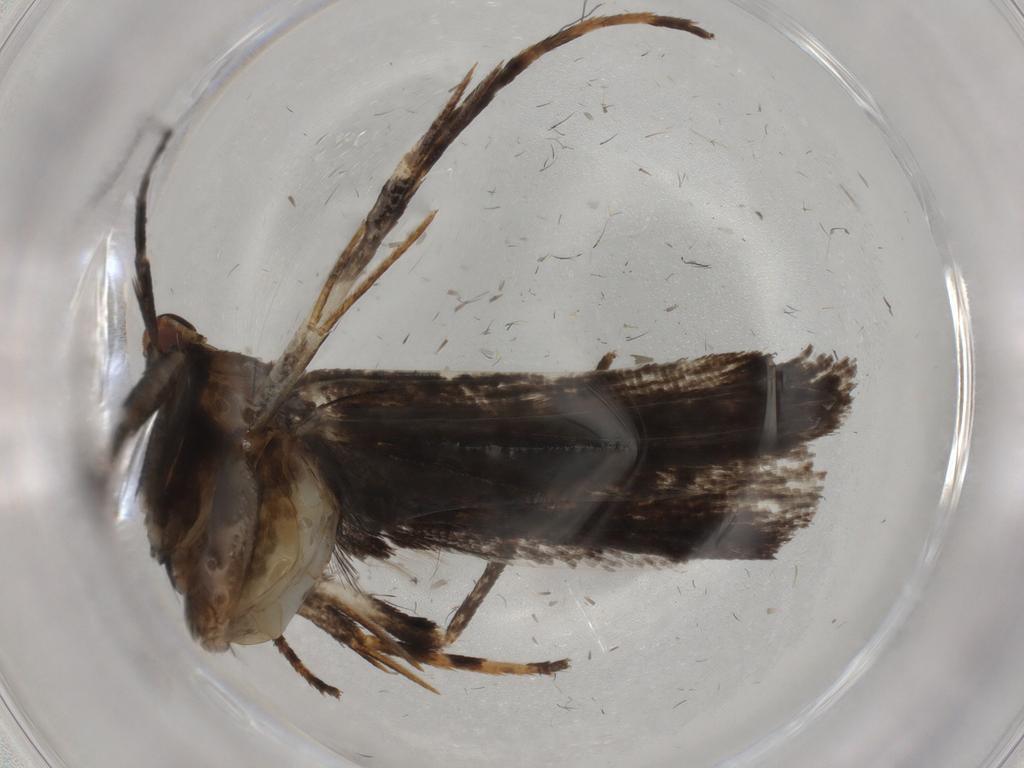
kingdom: Animalia
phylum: Arthropoda
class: Insecta
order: Lepidoptera
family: Gelechiidae
